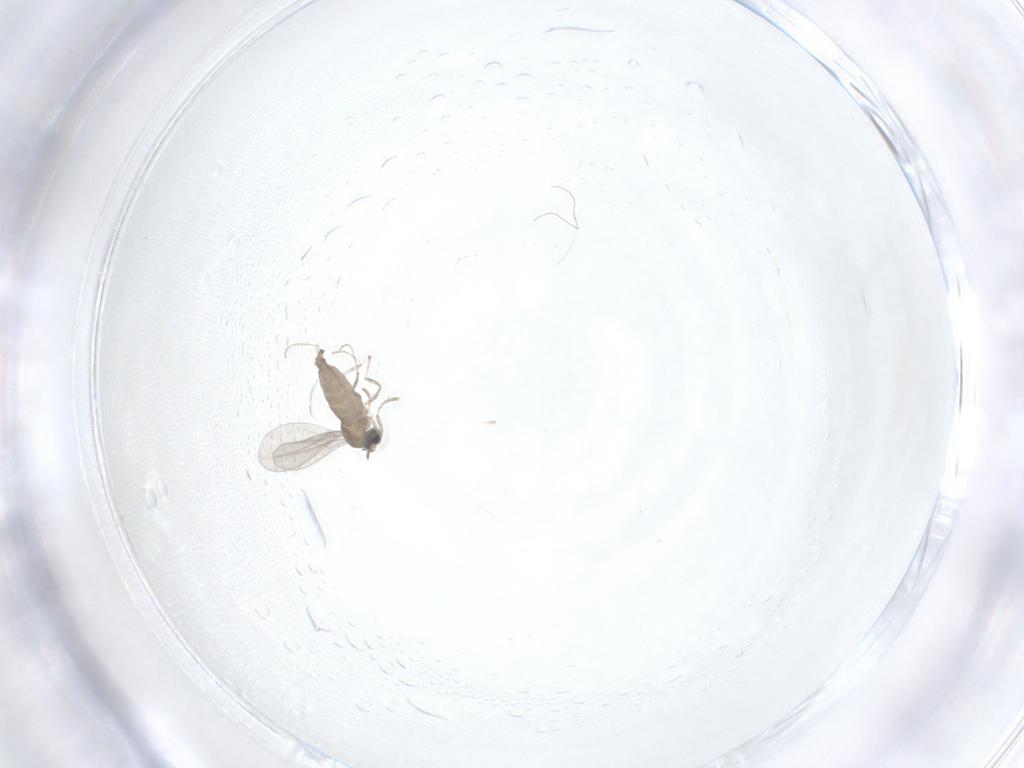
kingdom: Animalia
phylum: Arthropoda
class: Insecta
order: Diptera
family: Cecidomyiidae
